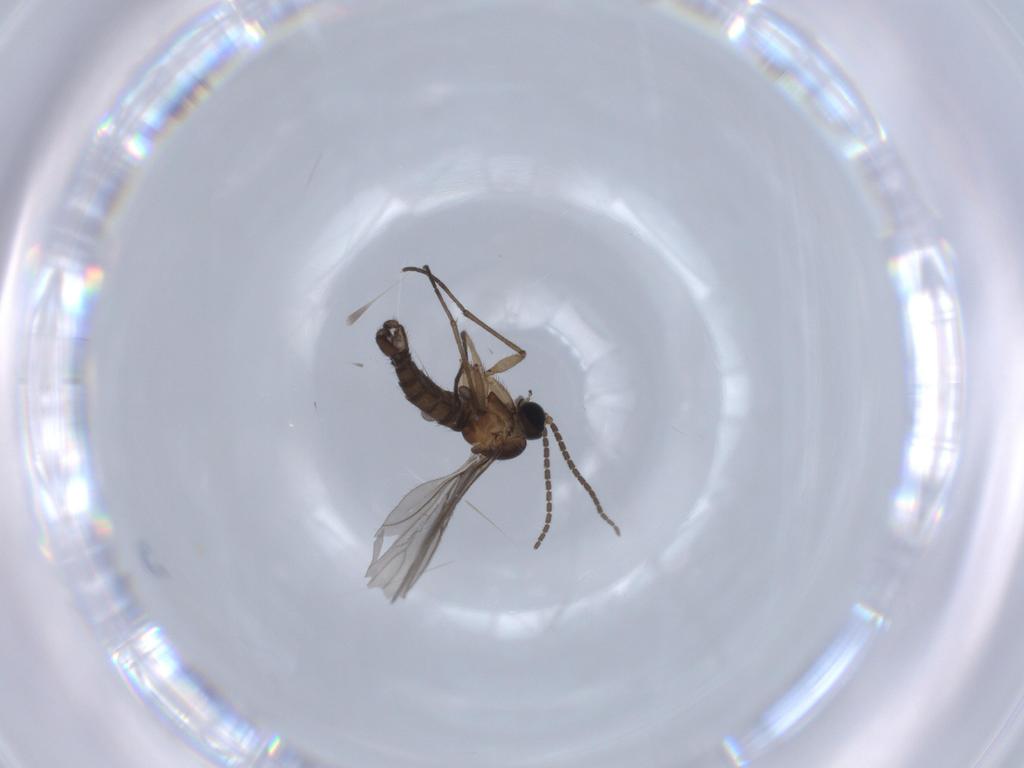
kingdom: Animalia
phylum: Arthropoda
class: Insecta
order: Diptera
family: Sciaridae
